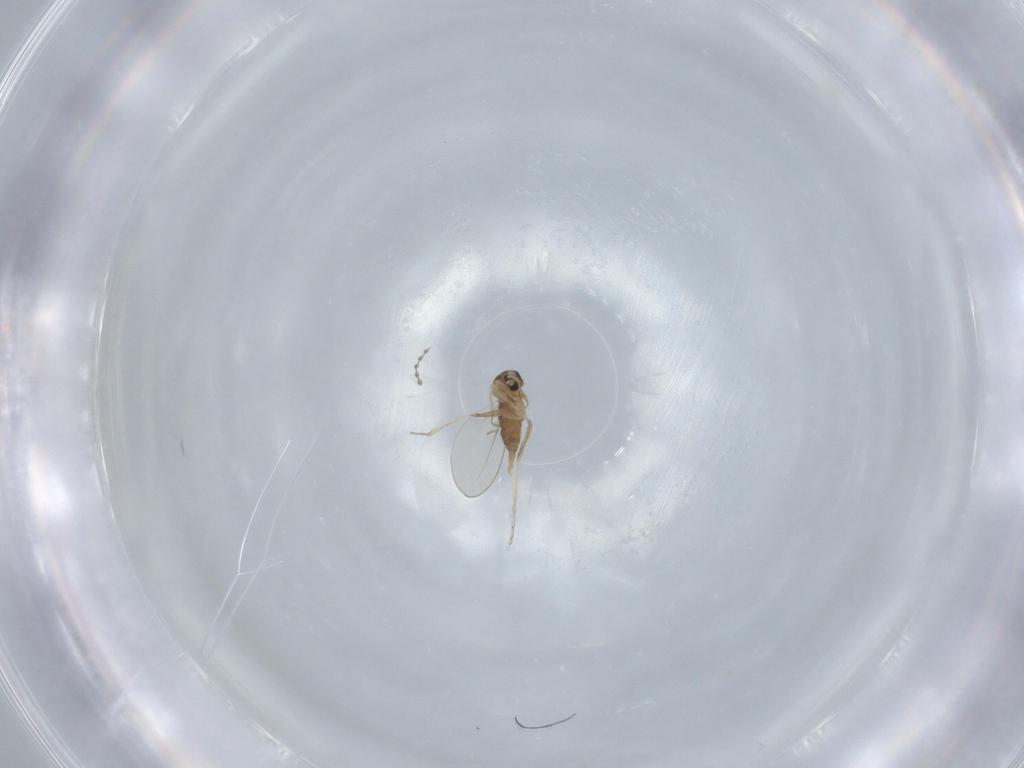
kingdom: Animalia
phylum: Arthropoda
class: Insecta
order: Diptera
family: Cecidomyiidae
